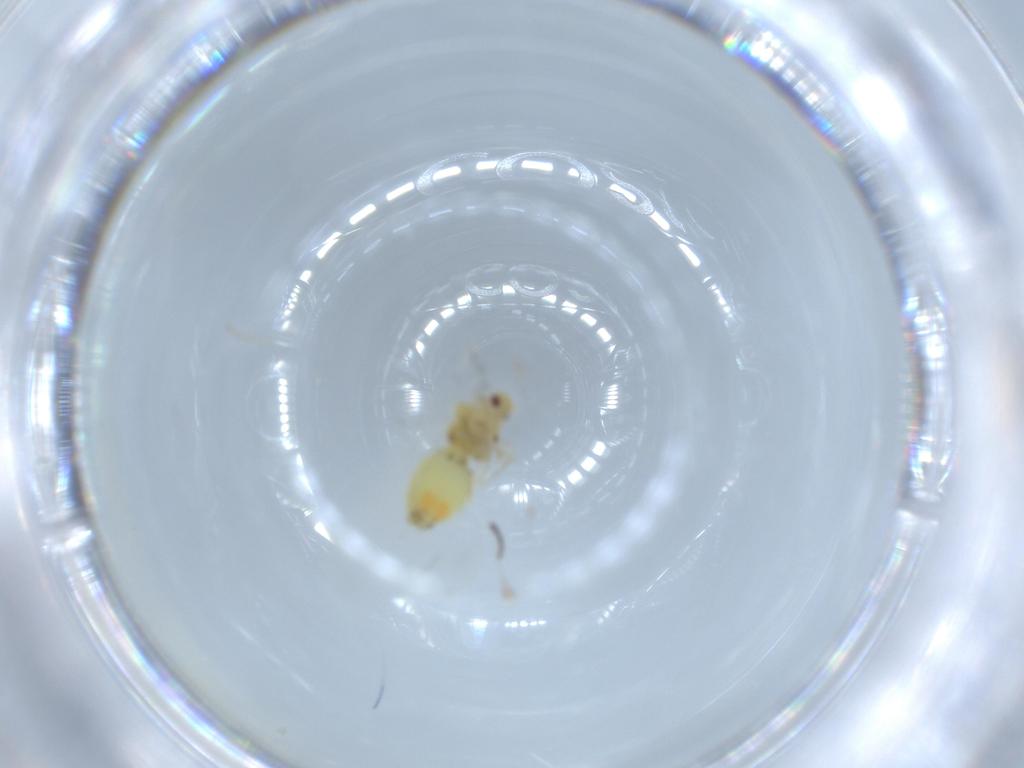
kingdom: Animalia
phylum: Arthropoda
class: Insecta
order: Hemiptera
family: Aleyrodidae
